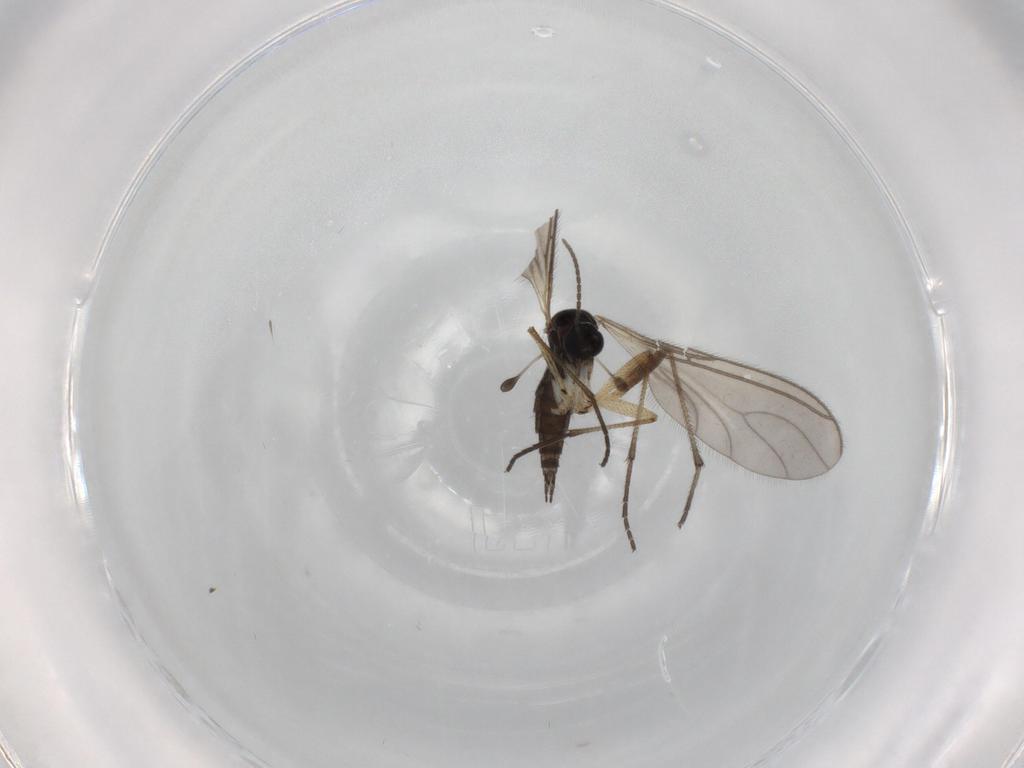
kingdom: Animalia
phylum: Arthropoda
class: Insecta
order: Diptera
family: Sciaridae
